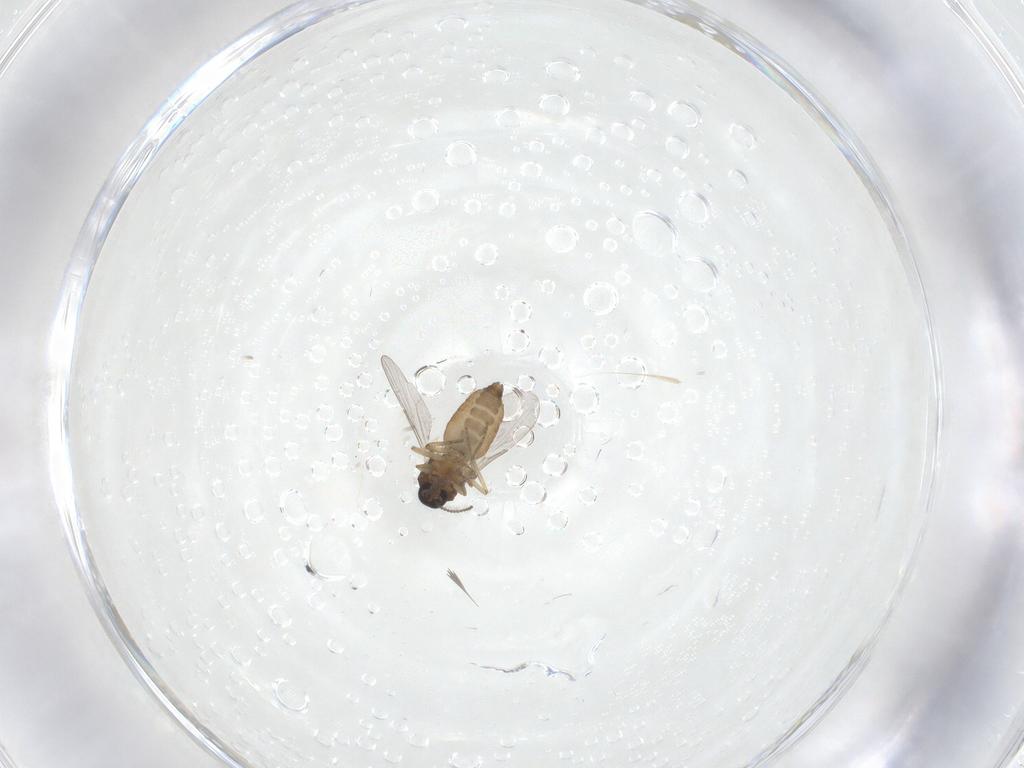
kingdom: Animalia
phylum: Arthropoda
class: Insecta
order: Diptera
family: Ceratopogonidae
